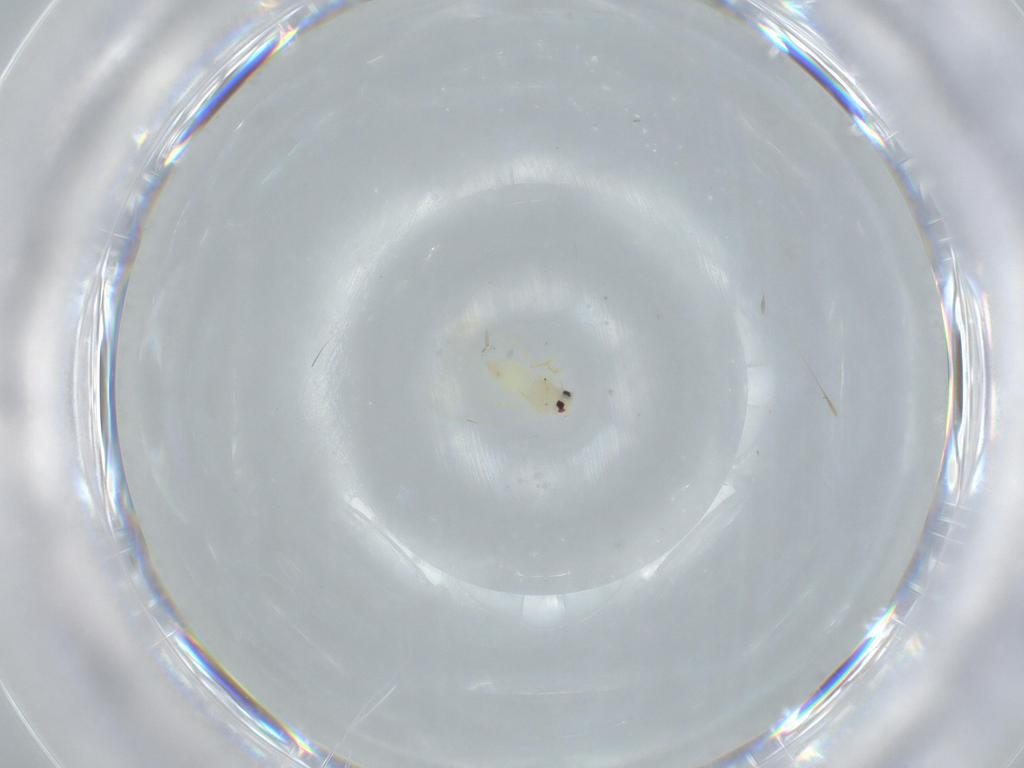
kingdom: Animalia
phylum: Arthropoda
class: Insecta
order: Hemiptera
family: Aleyrodidae
